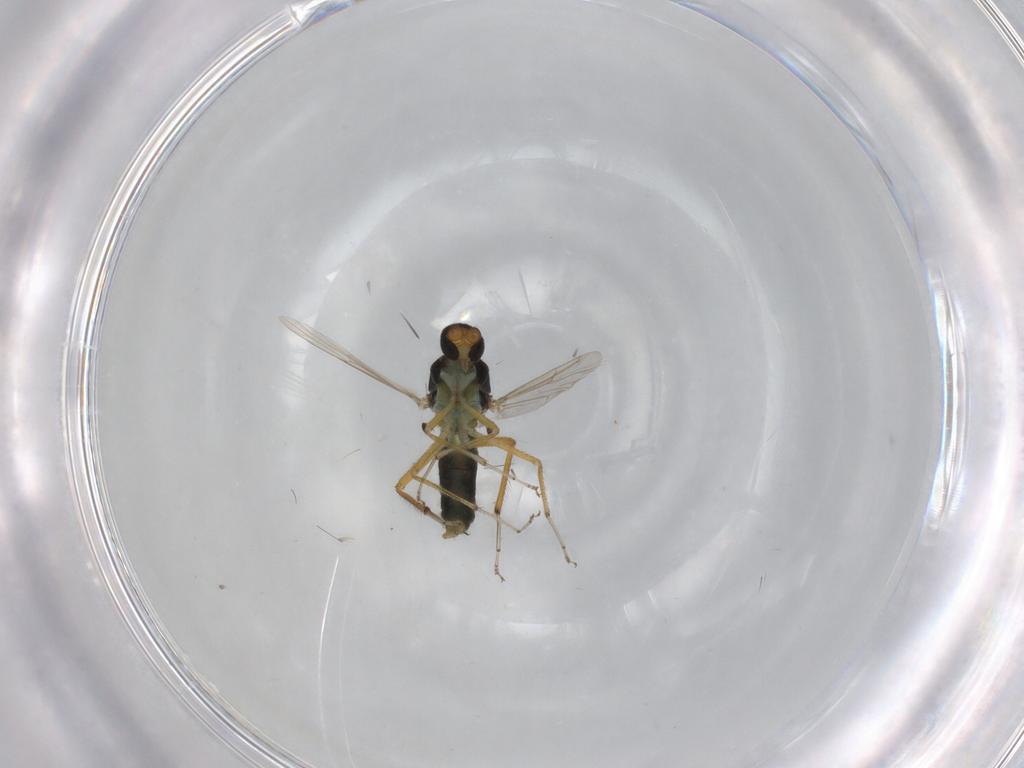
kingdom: Animalia
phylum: Arthropoda
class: Insecta
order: Diptera
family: Ceratopogonidae
